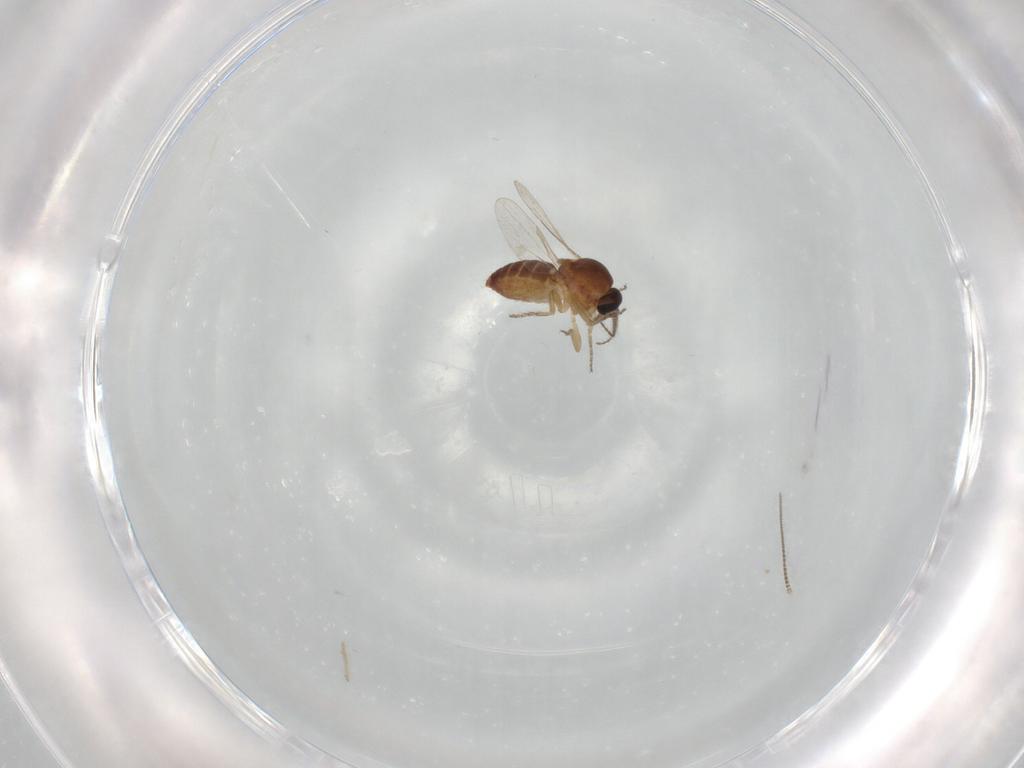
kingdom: Animalia
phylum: Arthropoda
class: Insecta
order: Diptera
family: Ceratopogonidae
